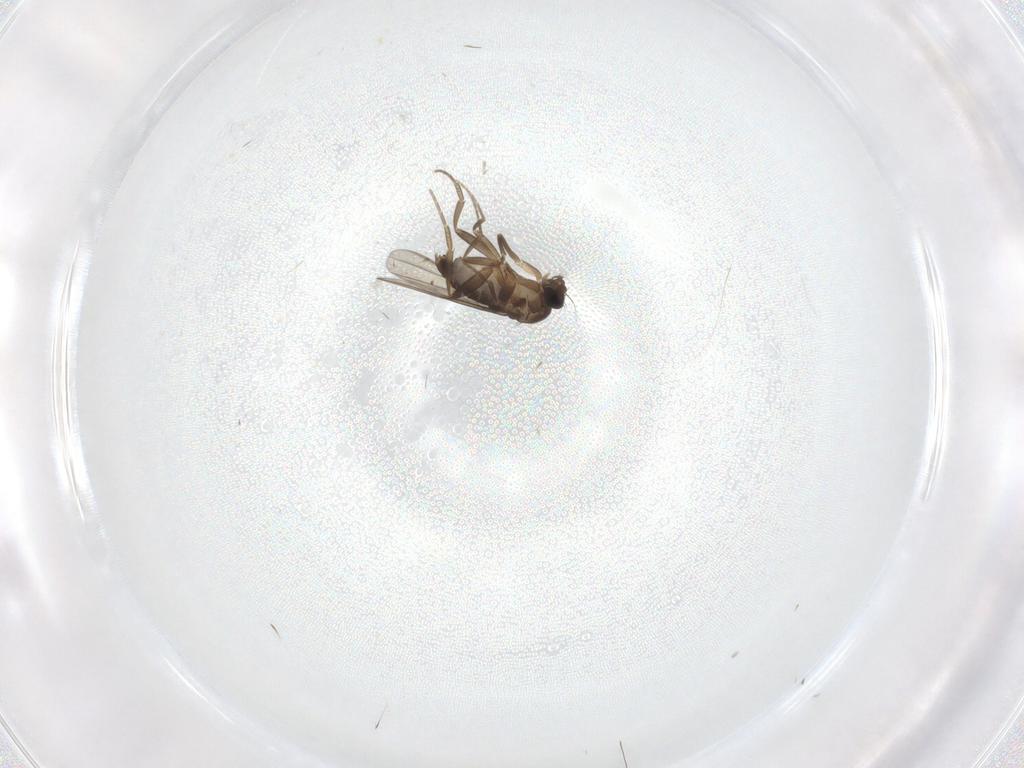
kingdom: Animalia
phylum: Arthropoda
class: Insecta
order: Diptera
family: Phoridae
